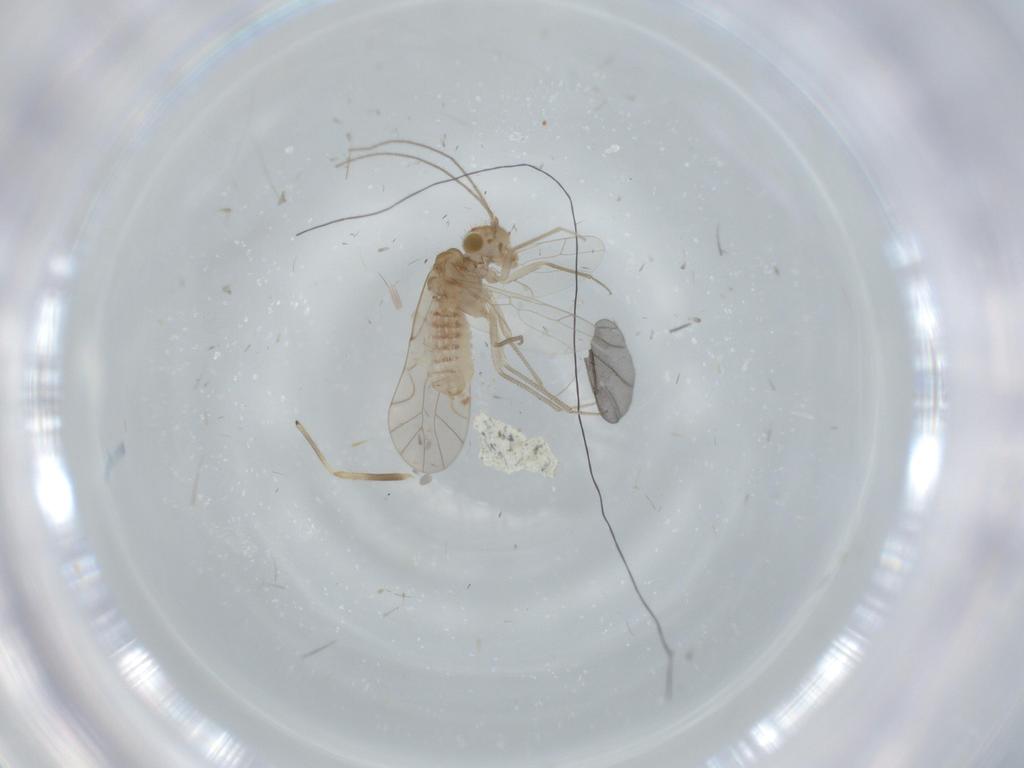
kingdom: Animalia
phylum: Arthropoda
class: Insecta
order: Psocodea
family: Lachesillidae
